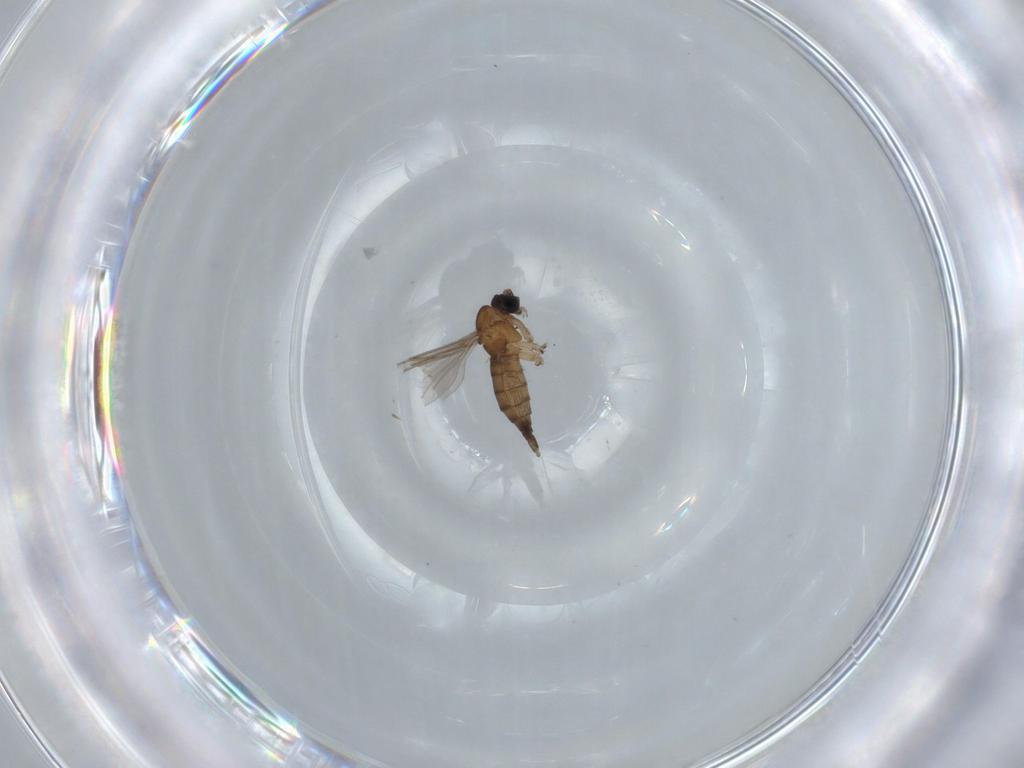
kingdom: Animalia
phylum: Arthropoda
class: Insecta
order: Diptera
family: Sciaridae
